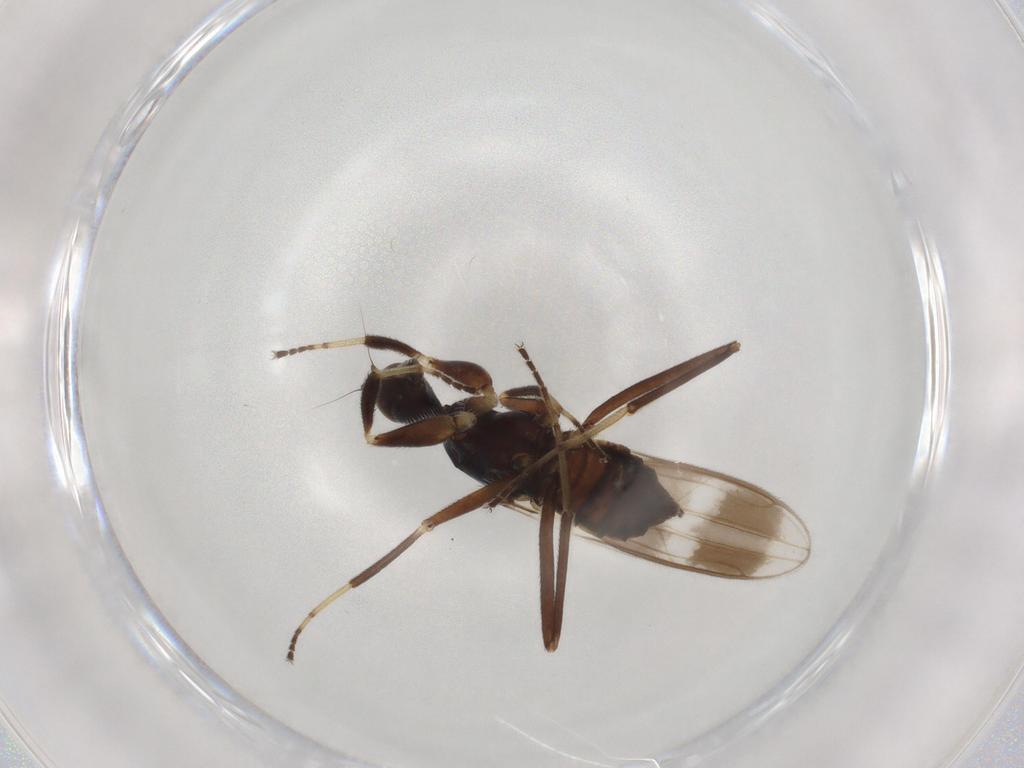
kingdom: Animalia
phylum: Arthropoda
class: Insecta
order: Diptera
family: Hybotidae
